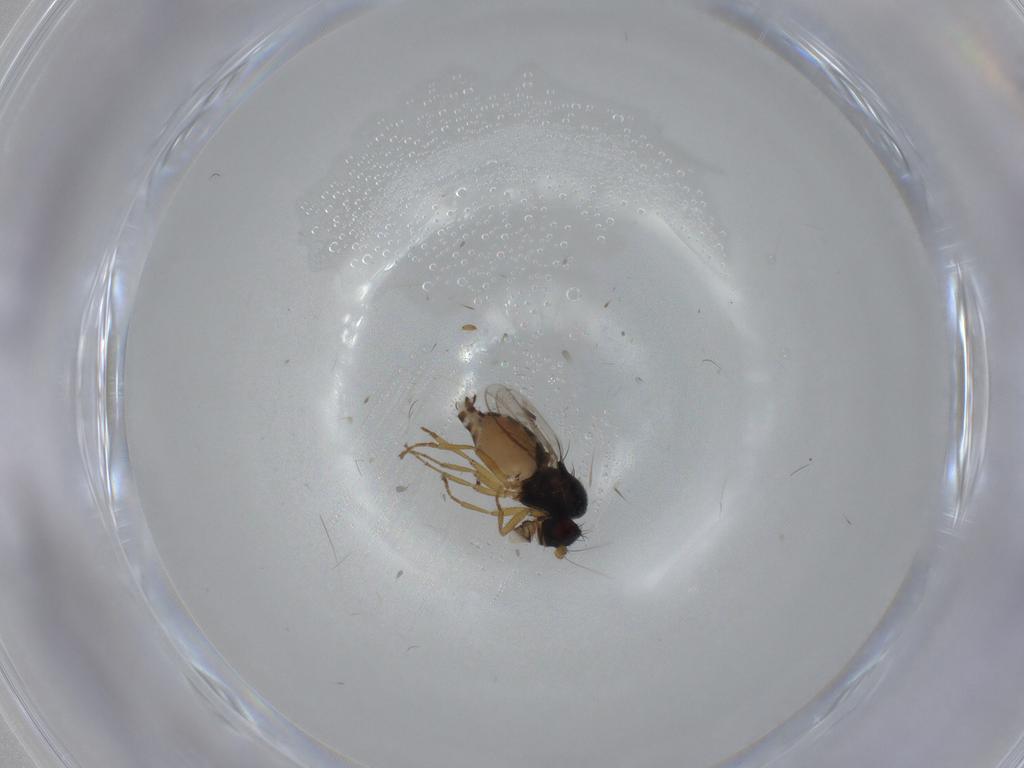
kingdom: Animalia
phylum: Arthropoda
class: Insecta
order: Diptera
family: Sphaeroceridae
